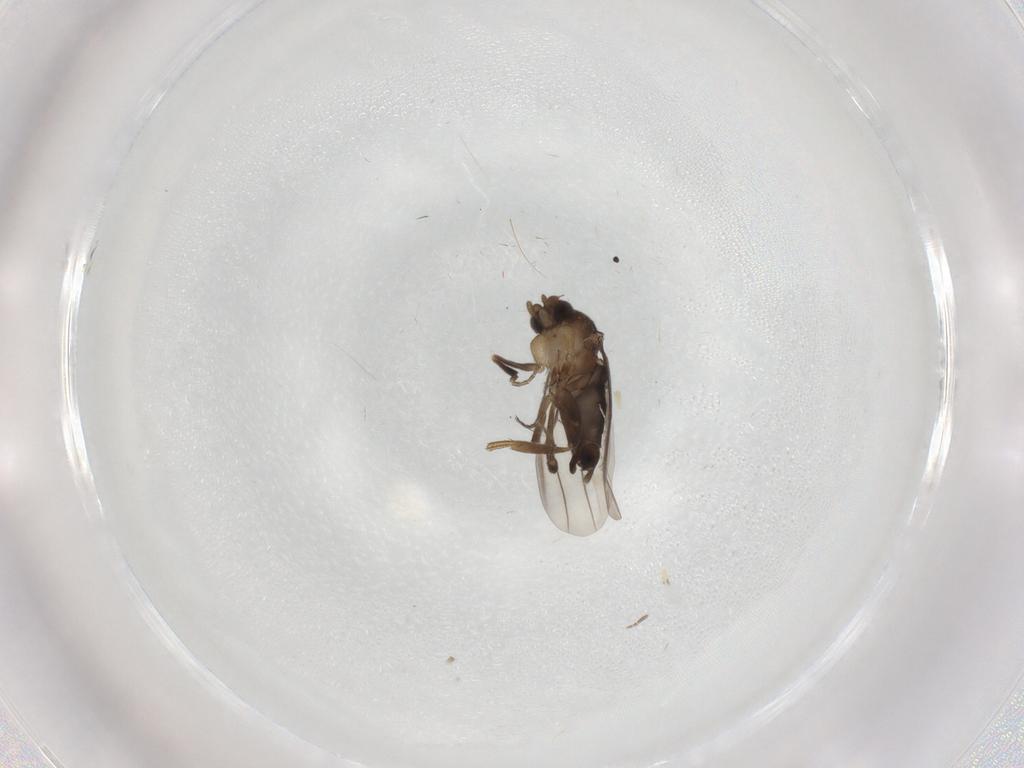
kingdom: Animalia
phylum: Arthropoda
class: Insecta
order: Diptera
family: Phoridae
